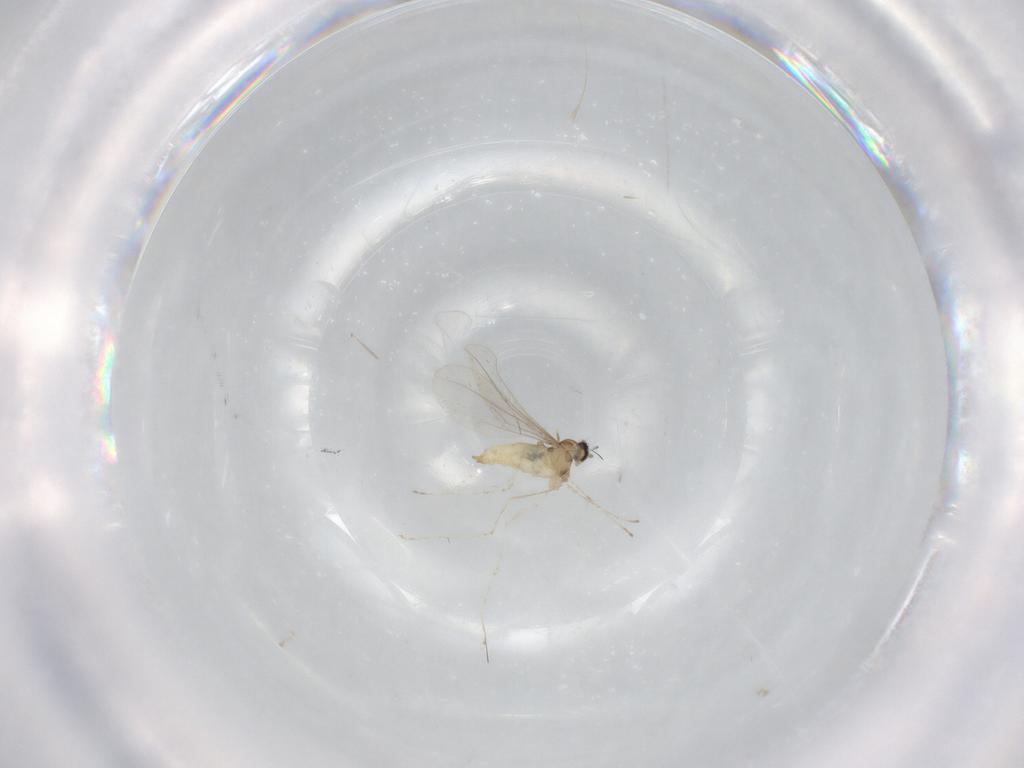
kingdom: Animalia
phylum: Arthropoda
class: Insecta
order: Diptera
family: Cecidomyiidae
